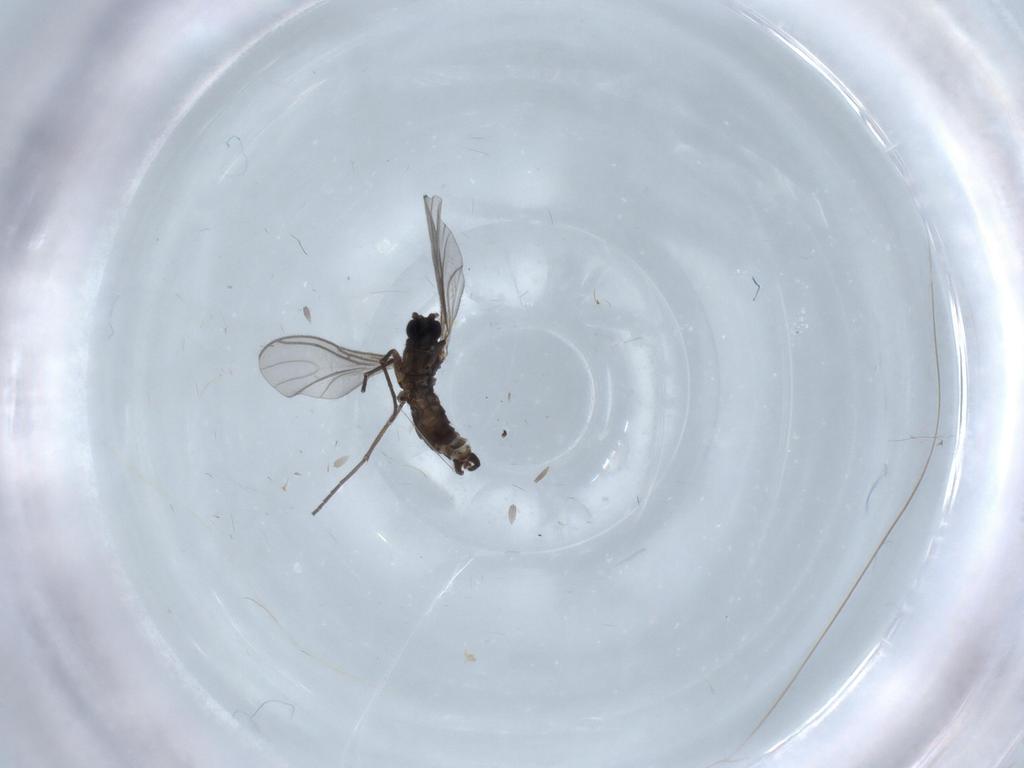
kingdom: Animalia
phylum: Arthropoda
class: Insecta
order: Diptera
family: Sciaridae
